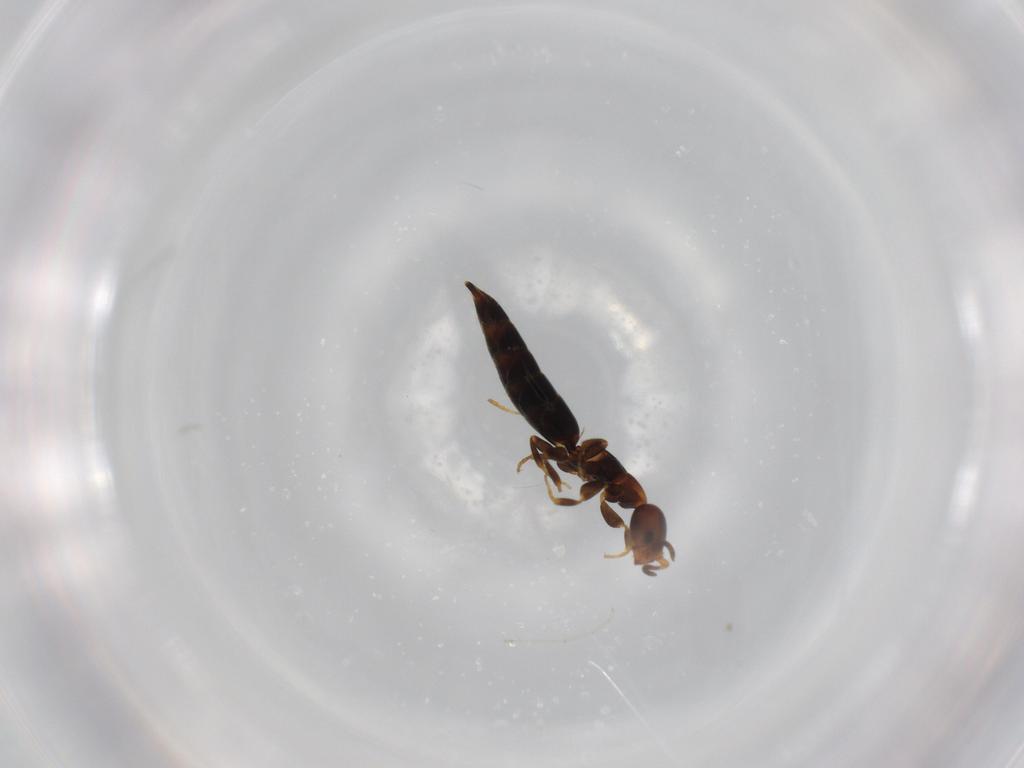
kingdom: Animalia
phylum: Arthropoda
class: Insecta
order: Hymenoptera
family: Bethylidae
